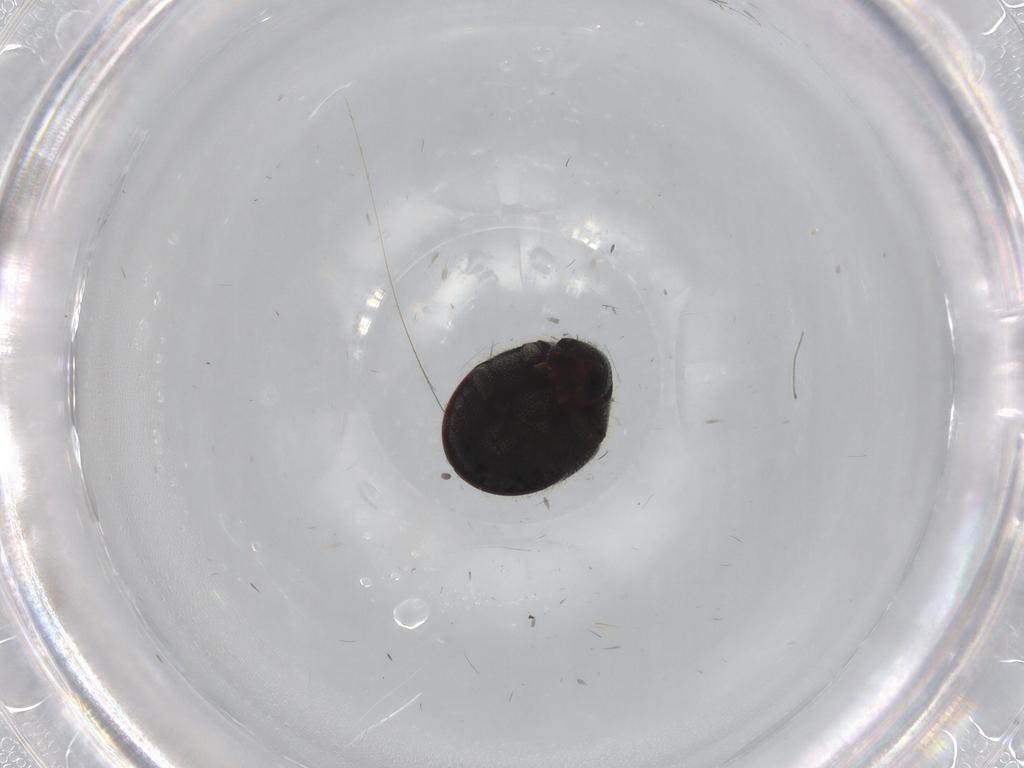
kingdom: Animalia
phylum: Arthropoda
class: Insecta
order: Coleoptera
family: Ptinidae
